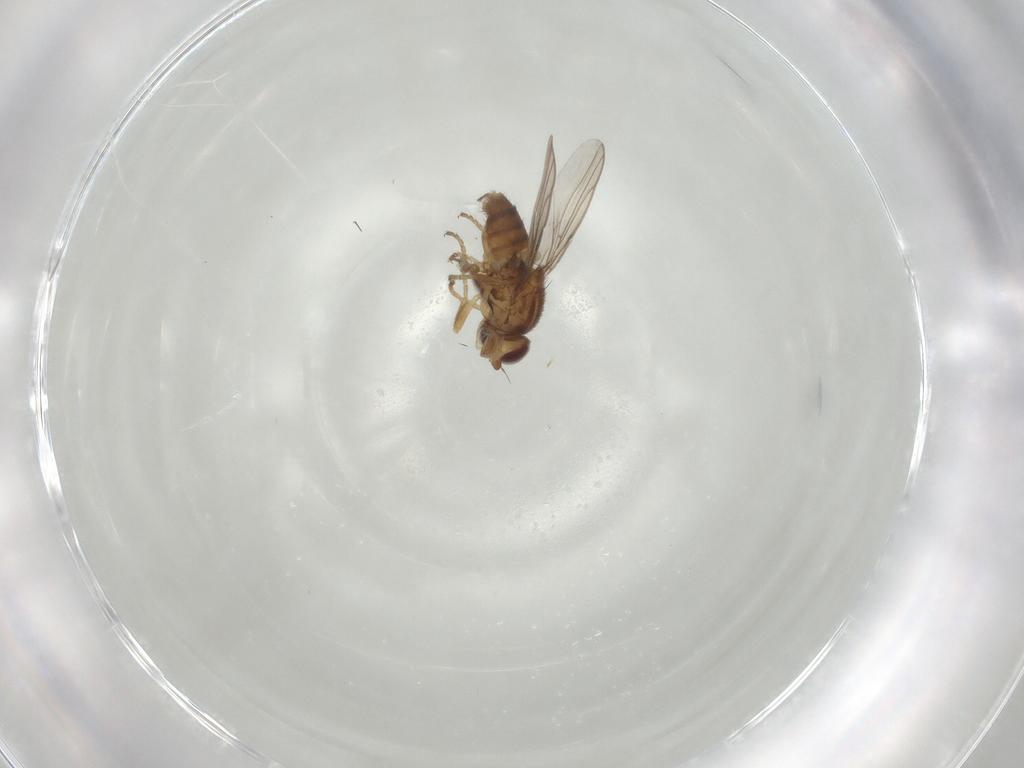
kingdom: Animalia
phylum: Arthropoda
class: Insecta
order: Diptera
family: Chloropidae
